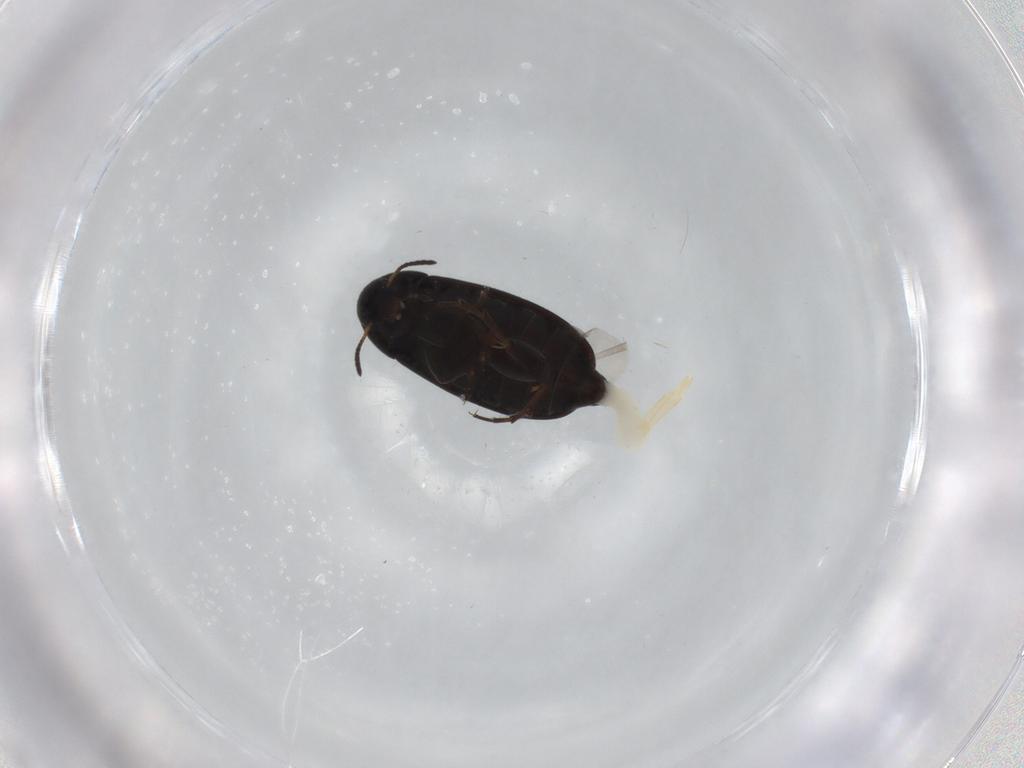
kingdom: Animalia
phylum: Arthropoda
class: Insecta
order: Coleoptera
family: Scraptiidae
